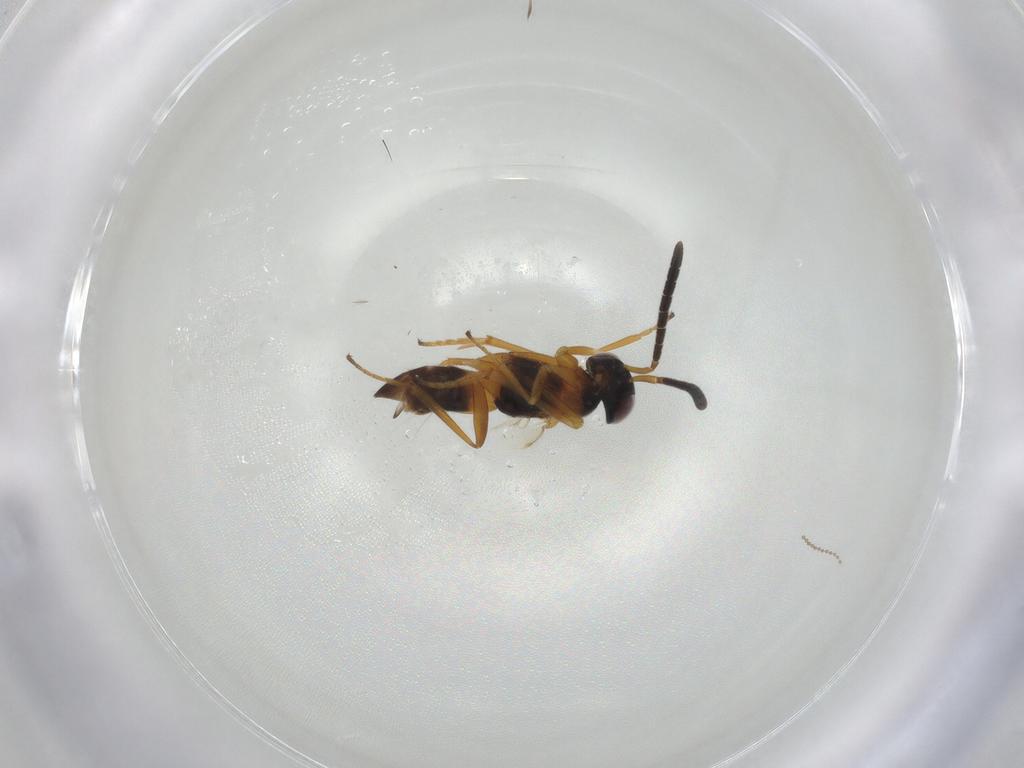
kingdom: Animalia
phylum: Arthropoda
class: Insecta
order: Hymenoptera
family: Encyrtidae
